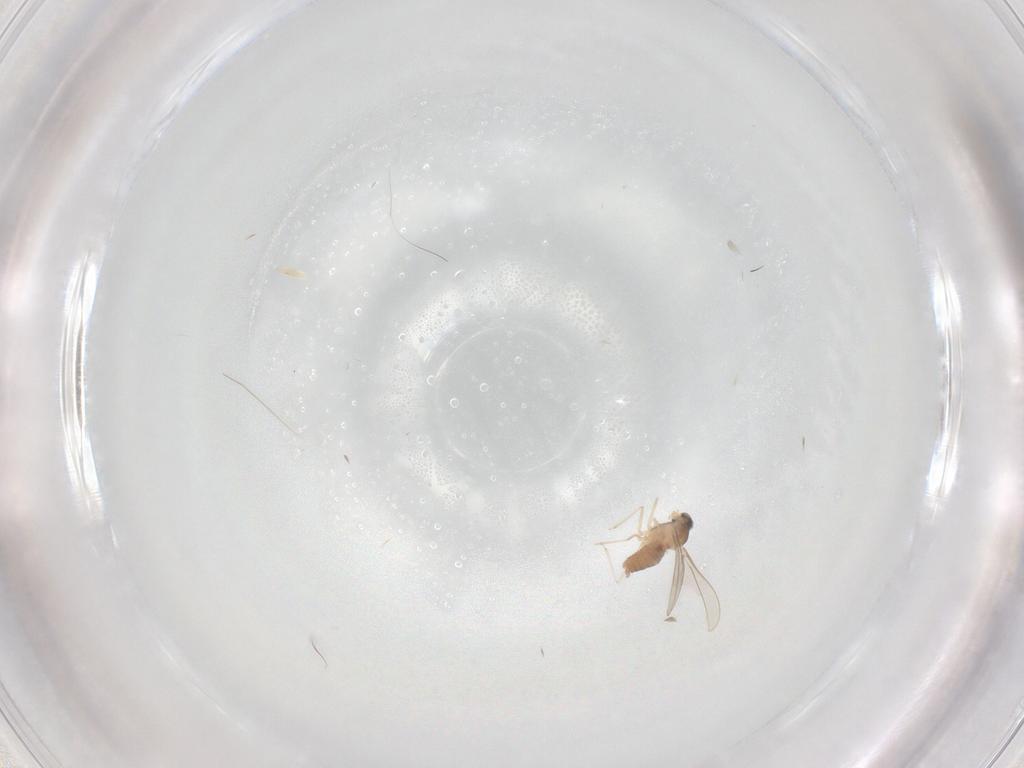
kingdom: Animalia
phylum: Arthropoda
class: Insecta
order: Diptera
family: Cecidomyiidae
